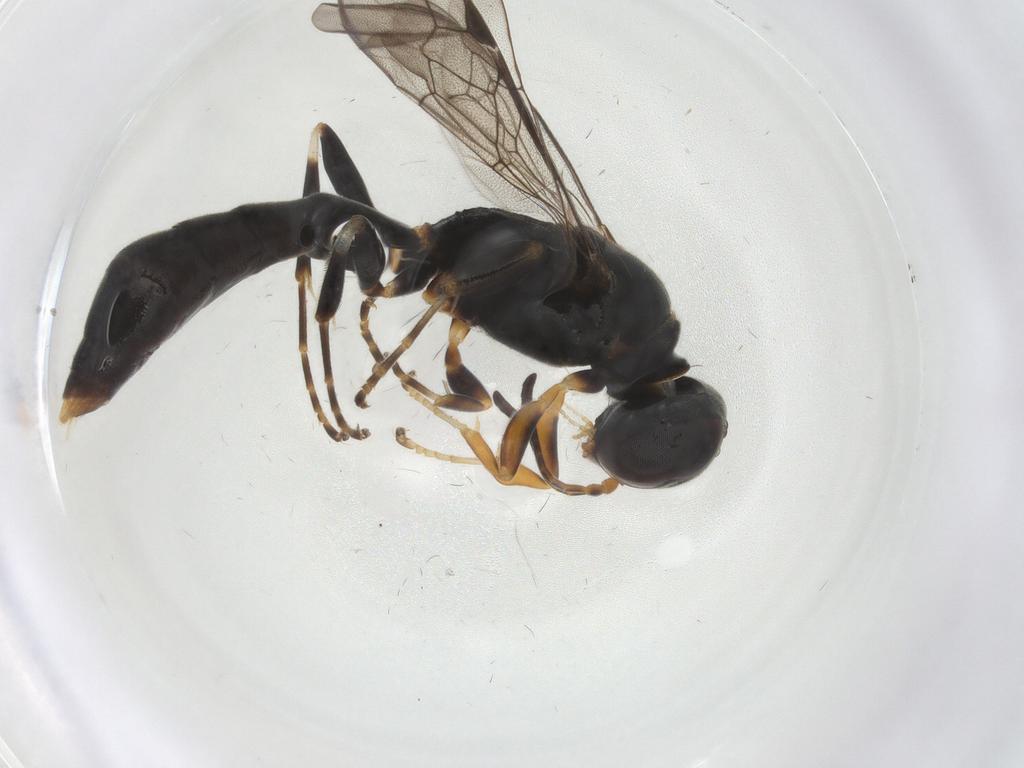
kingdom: Animalia
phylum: Arthropoda
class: Insecta
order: Hymenoptera
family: Crabronidae
